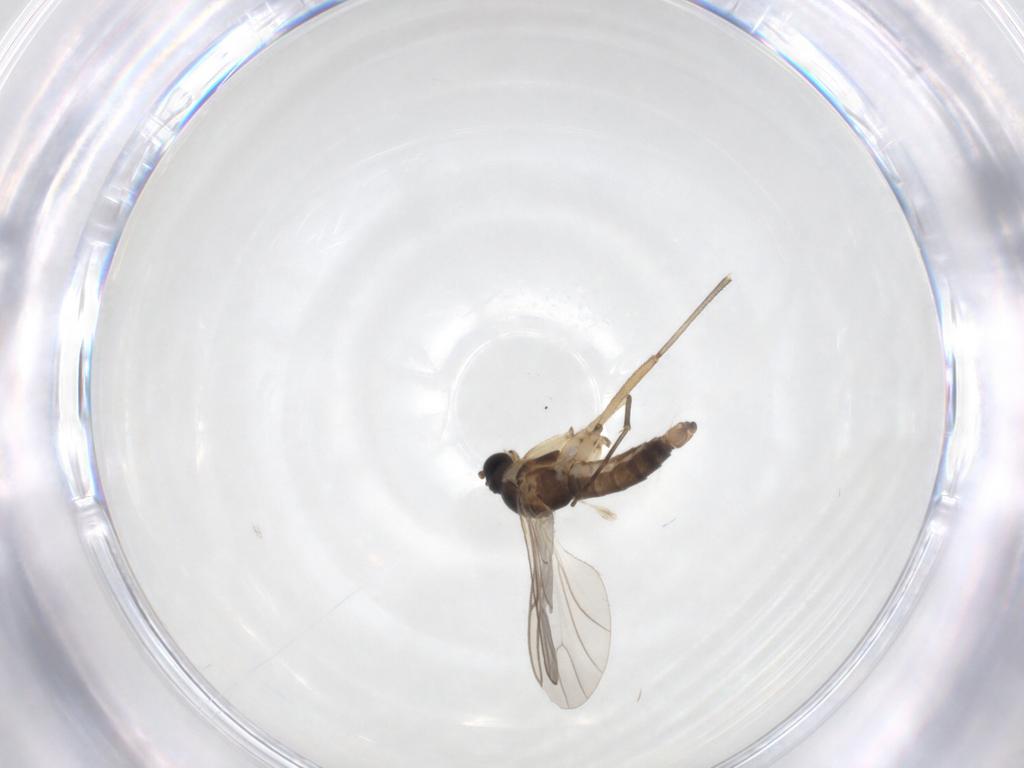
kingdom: Animalia
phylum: Arthropoda
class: Insecta
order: Diptera
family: Sciaridae
